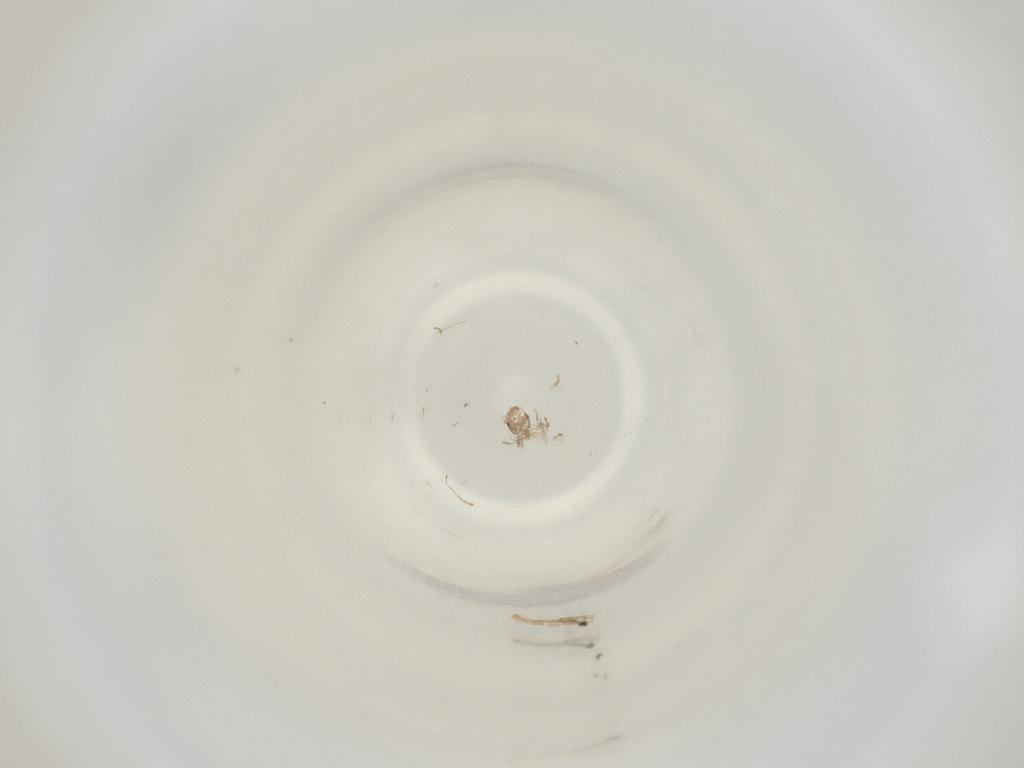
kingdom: Animalia
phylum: Arthropoda
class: Insecta
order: Diptera
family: Cecidomyiidae
